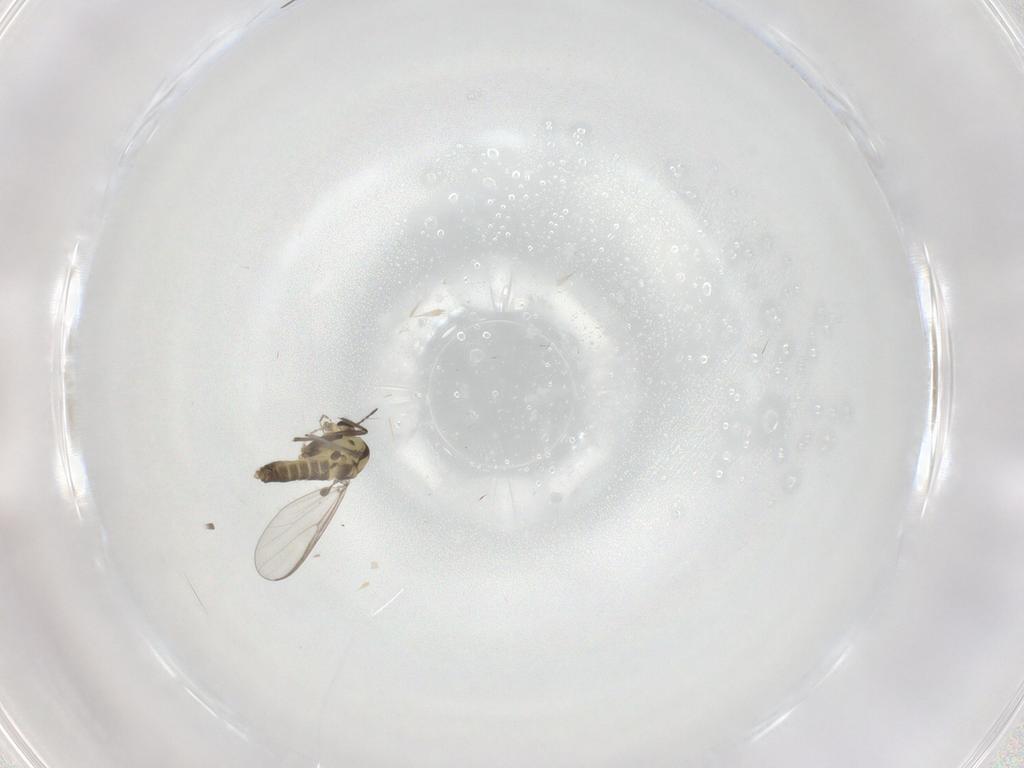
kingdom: Animalia
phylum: Arthropoda
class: Insecta
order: Diptera
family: Chironomidae
